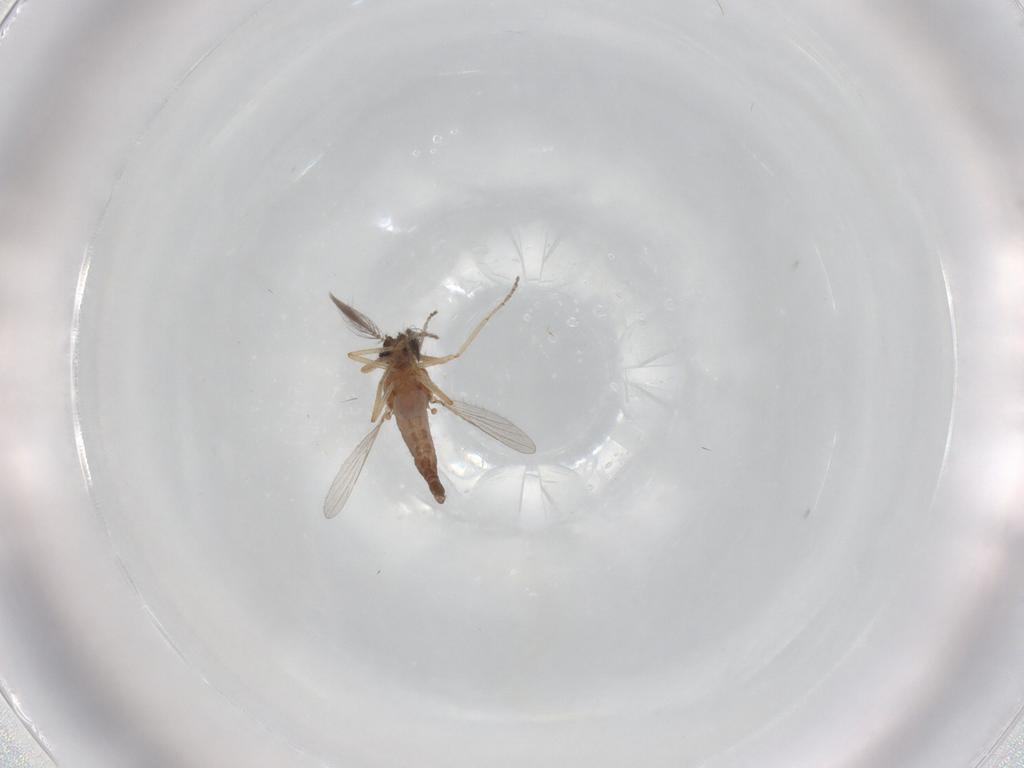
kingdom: Animalia
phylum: Arthropoda
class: Insecta
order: Diptera
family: Ceratopogonidae
